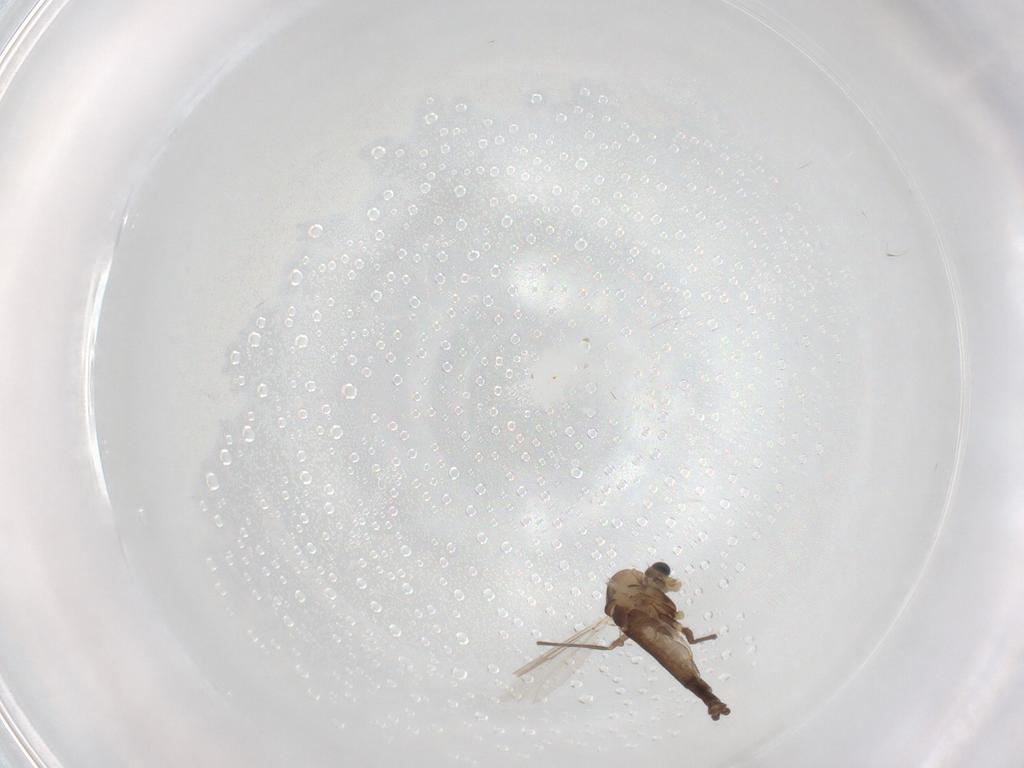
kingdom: Animalia
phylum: Arthropoda
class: Insecta
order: Diptera
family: Chironomidae
